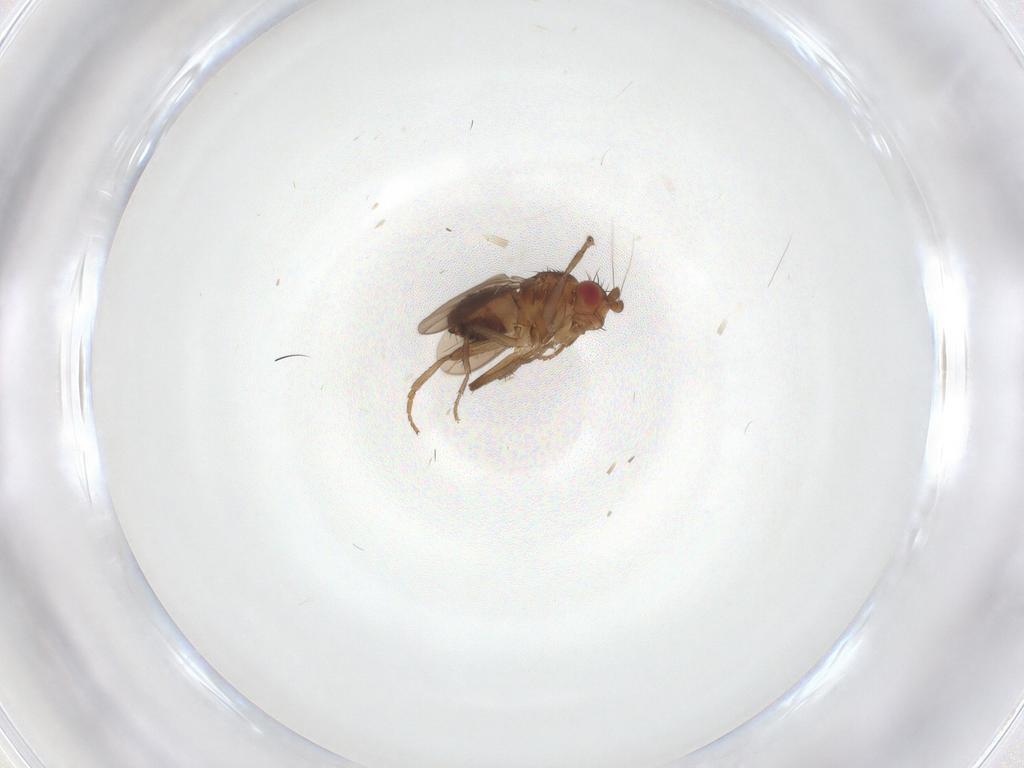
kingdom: Animalia
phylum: Arthropoda
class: Insecta
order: Diptera
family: Sphaeroceridae
